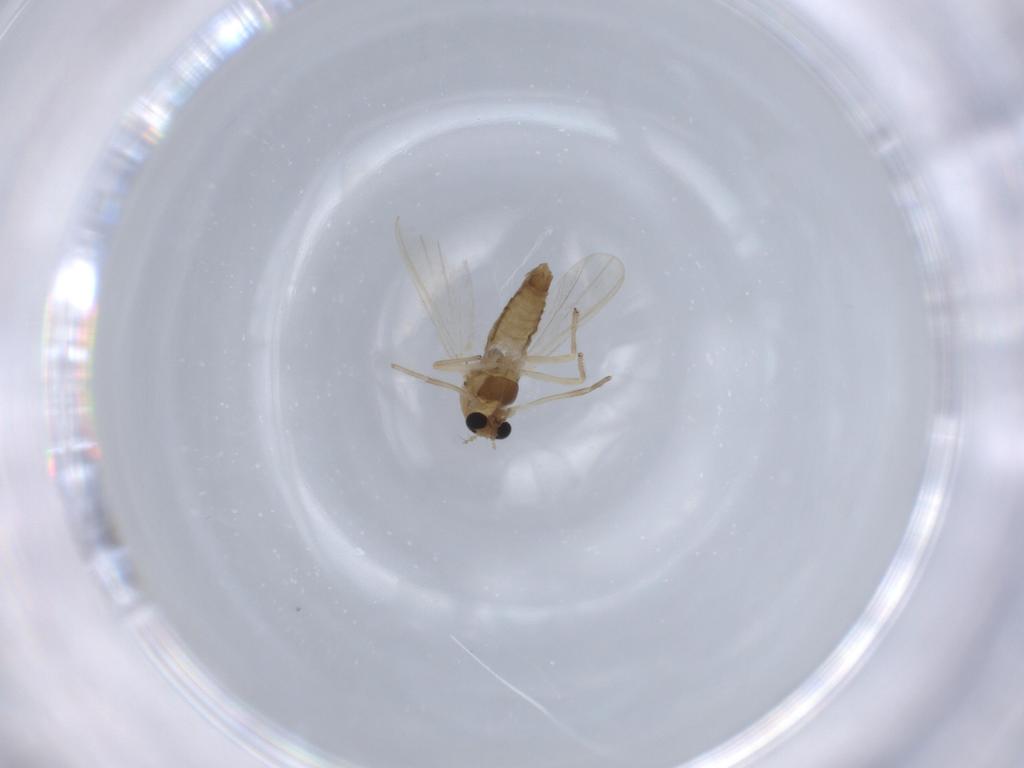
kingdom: Animalia
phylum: Arthropoda
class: Insecta
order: Diptera
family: Chironomidae
